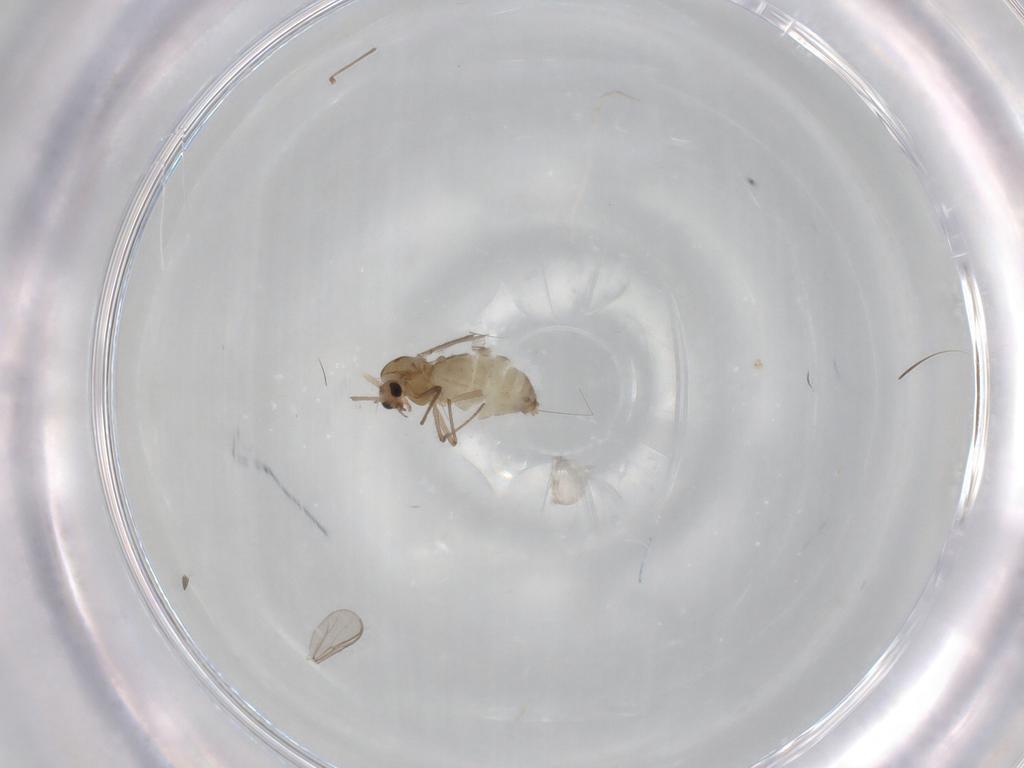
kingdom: Animalia
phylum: Arthropoda
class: Insecta
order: Diptera
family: Chironomidae
